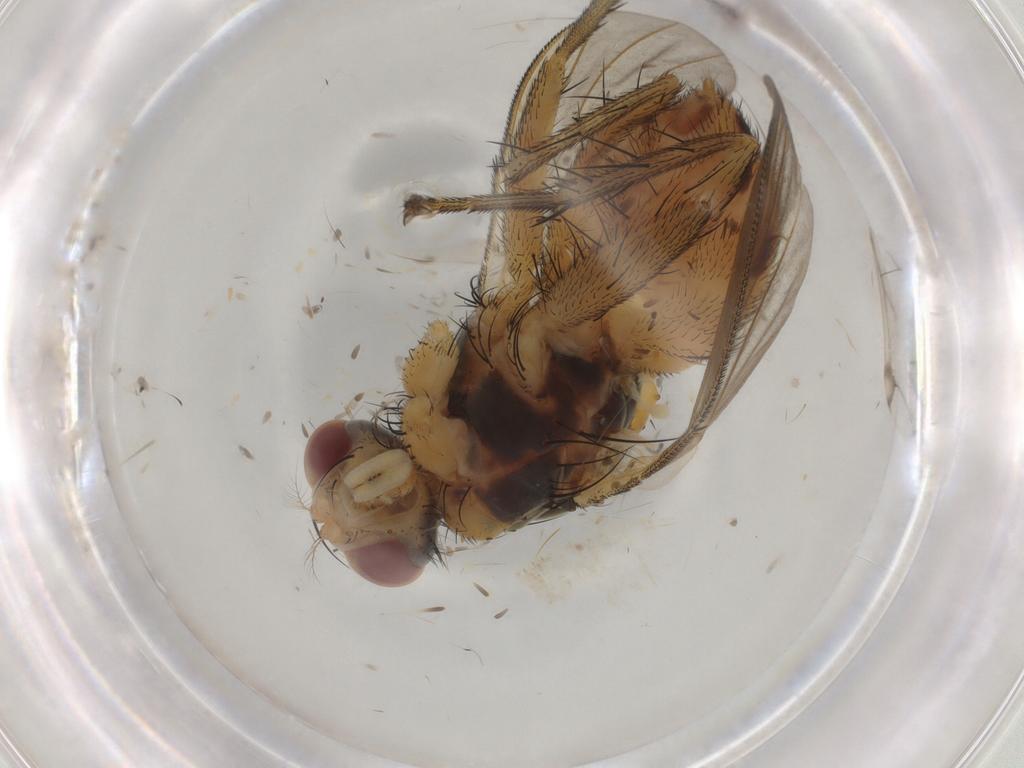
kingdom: Animalia
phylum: Arthropoda
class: Insecta
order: Diptera
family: Muscidae
